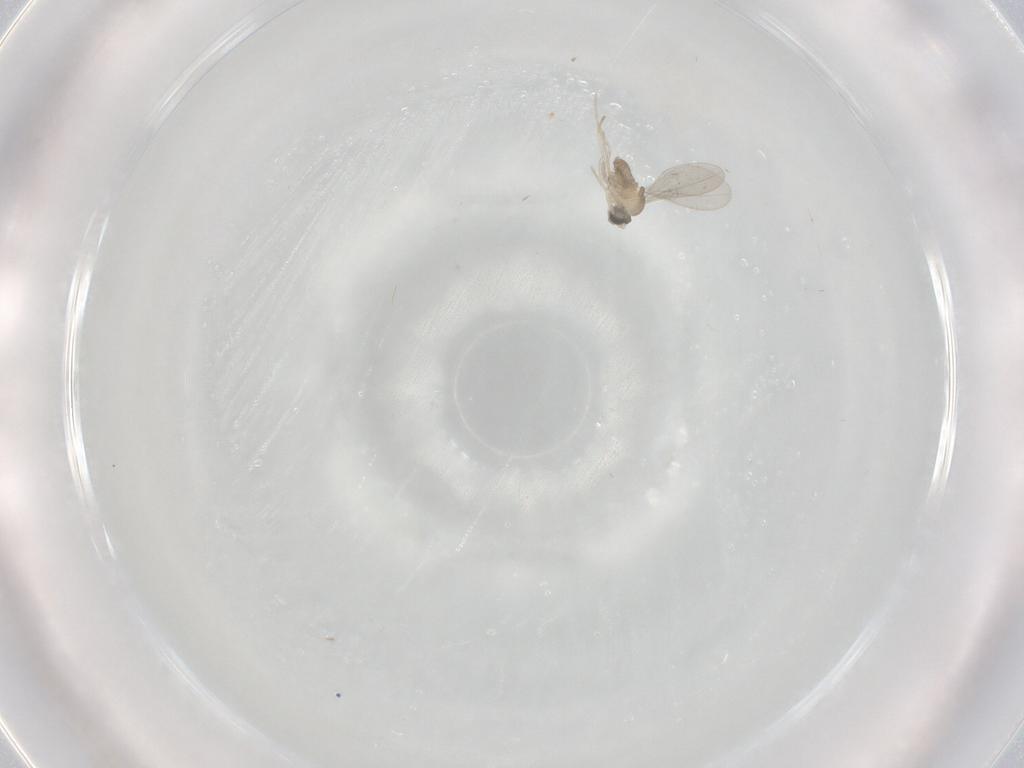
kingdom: Animalia
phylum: Arthropoda
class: Insecta
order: Diptera
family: Cecidomyiidae
